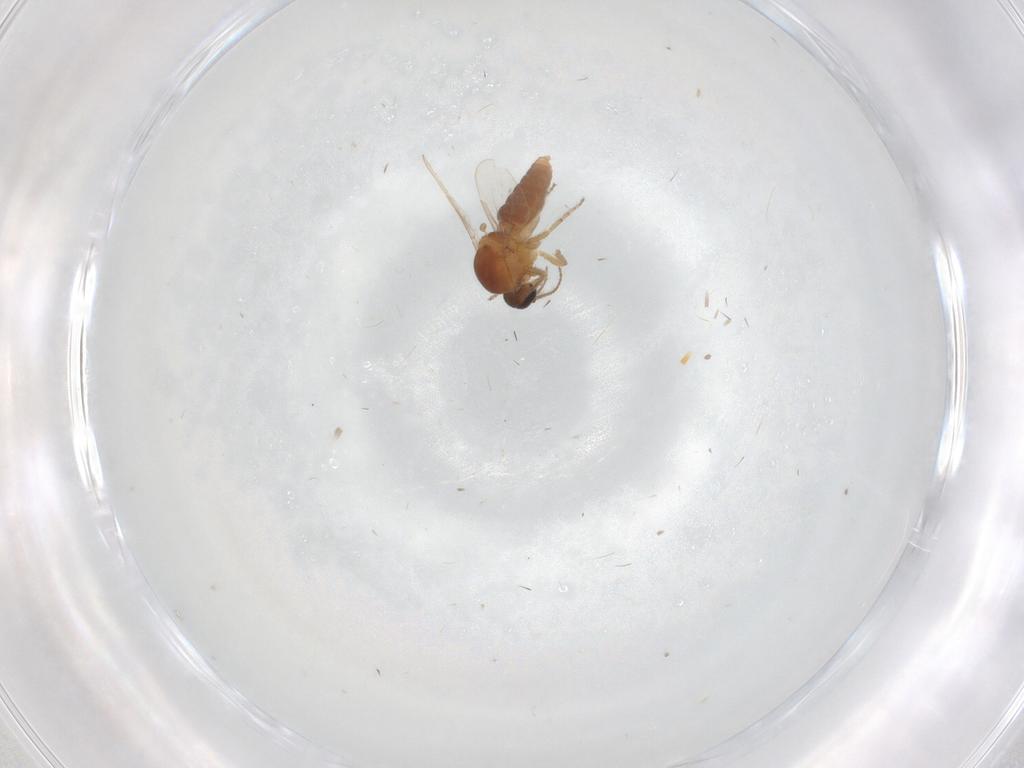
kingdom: Animalia
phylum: Arthropoda
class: Insecta
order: Diptera
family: Ceratopogonidae
